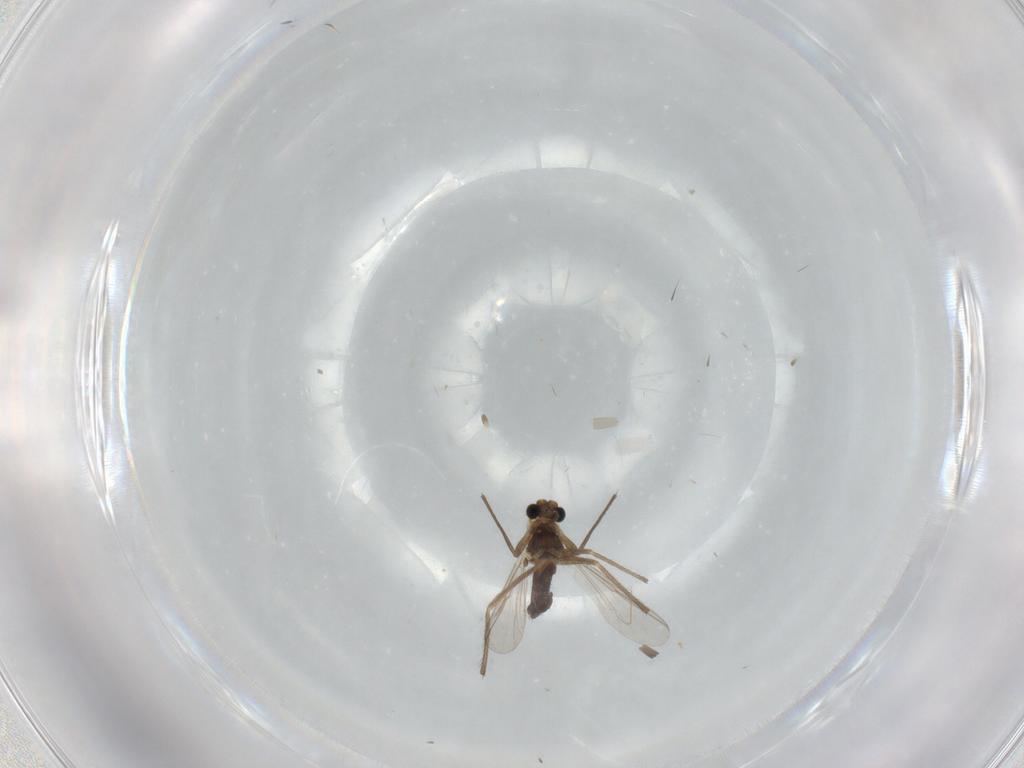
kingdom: Animalia
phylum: Arthropoda
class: Insecta
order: Diptera
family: Chironomidae
